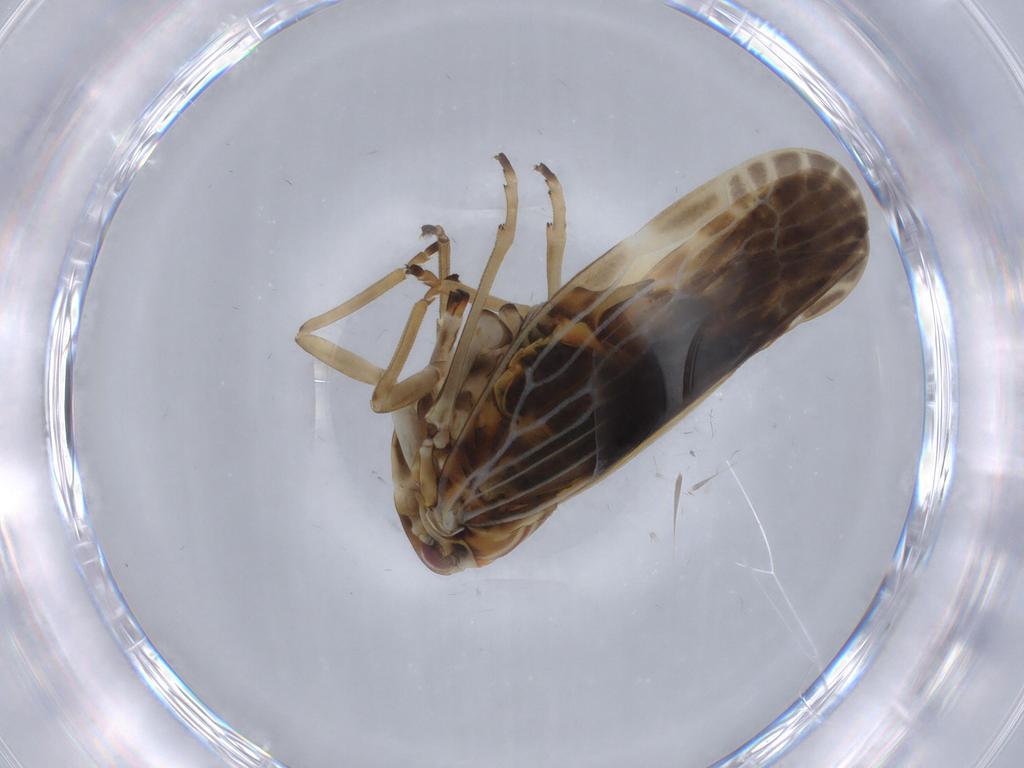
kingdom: Animalia
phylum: Arthropoda
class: Insecta
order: Hemiptera
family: Derbidae
